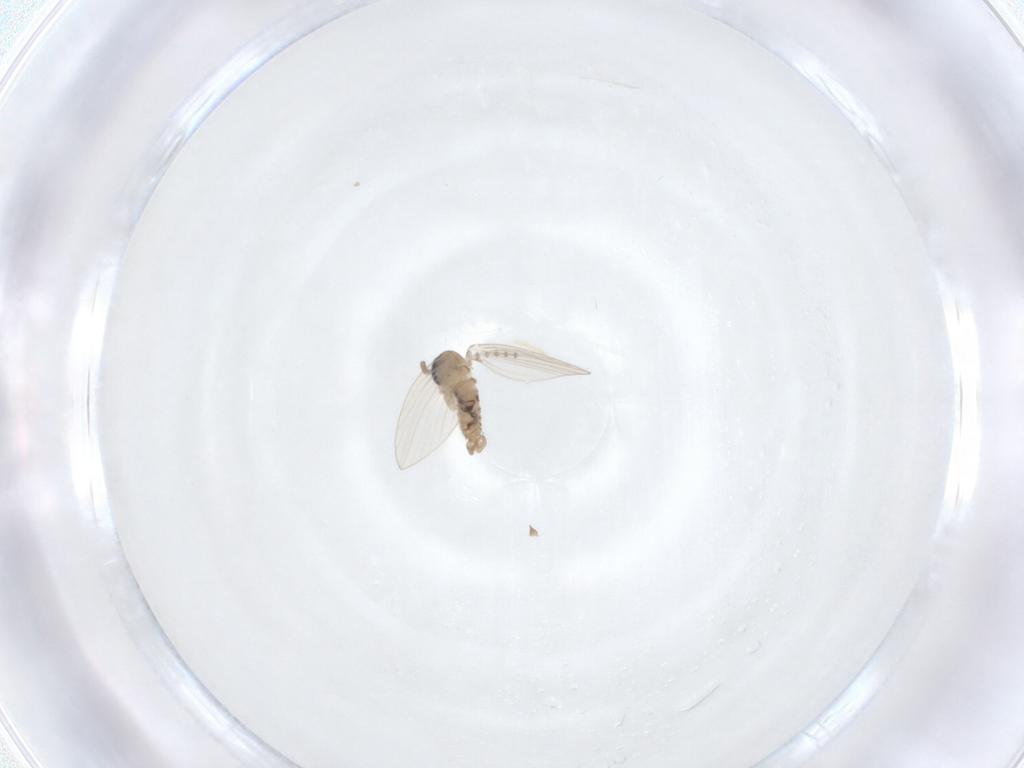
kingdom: Animalia
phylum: Arthropoda
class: Insecta
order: Diptera
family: Psychodidae
